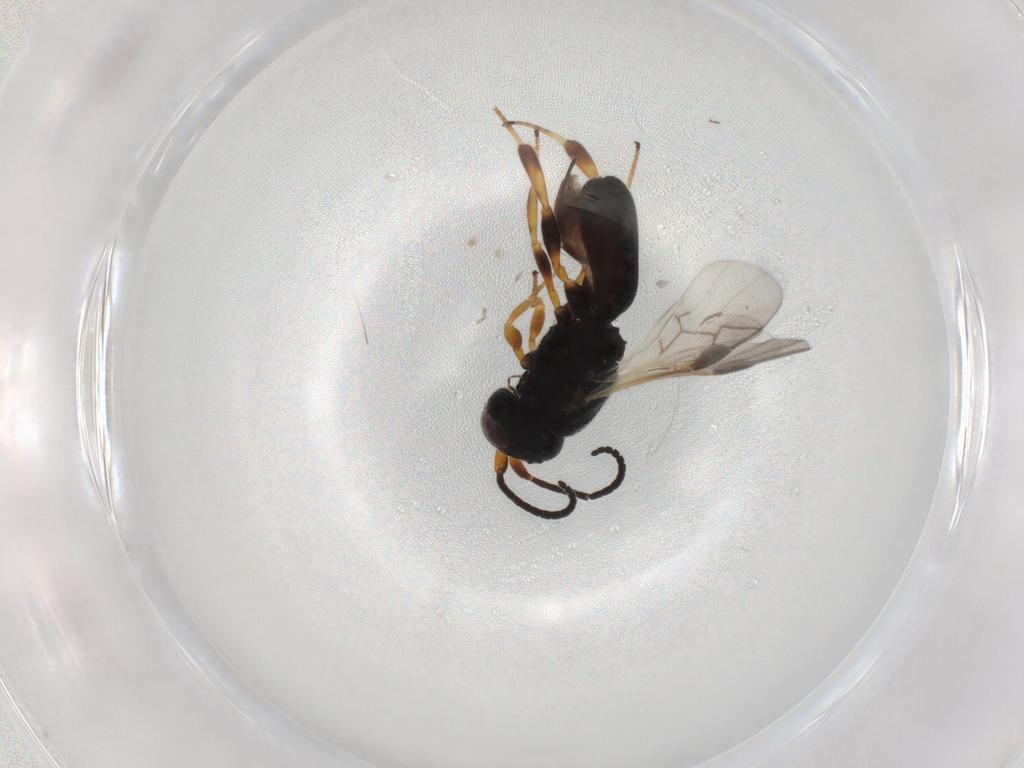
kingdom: Animalia
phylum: Arthropoda
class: Insecta
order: Hymenoptera
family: Braconidae
